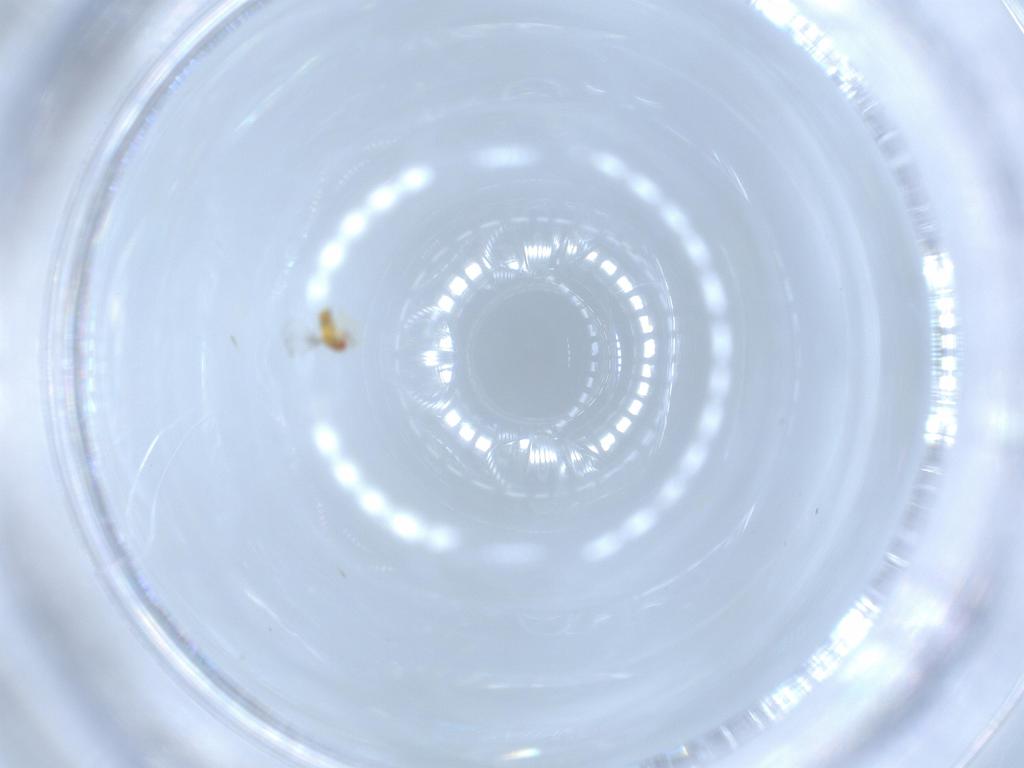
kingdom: Animalia
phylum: Arthropoda
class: Insecta
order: Hymenoptera
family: Trichogrammatidae
